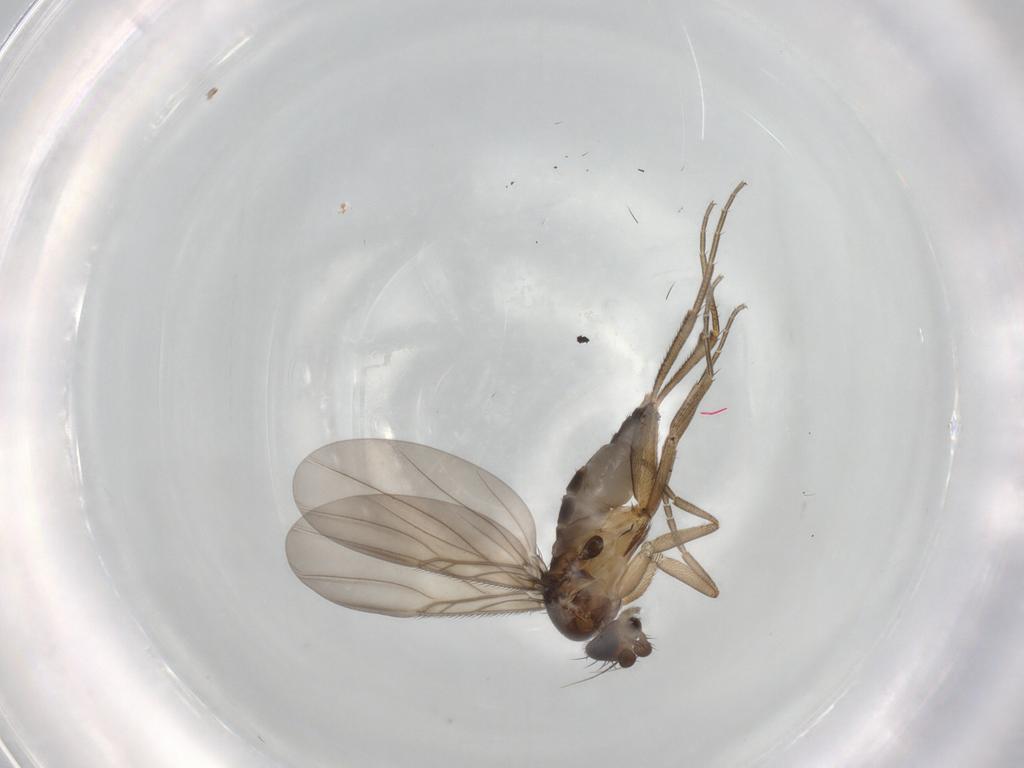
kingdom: Animalia
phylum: Arthropoda
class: Insecta
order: Diptera
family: Phoridae
